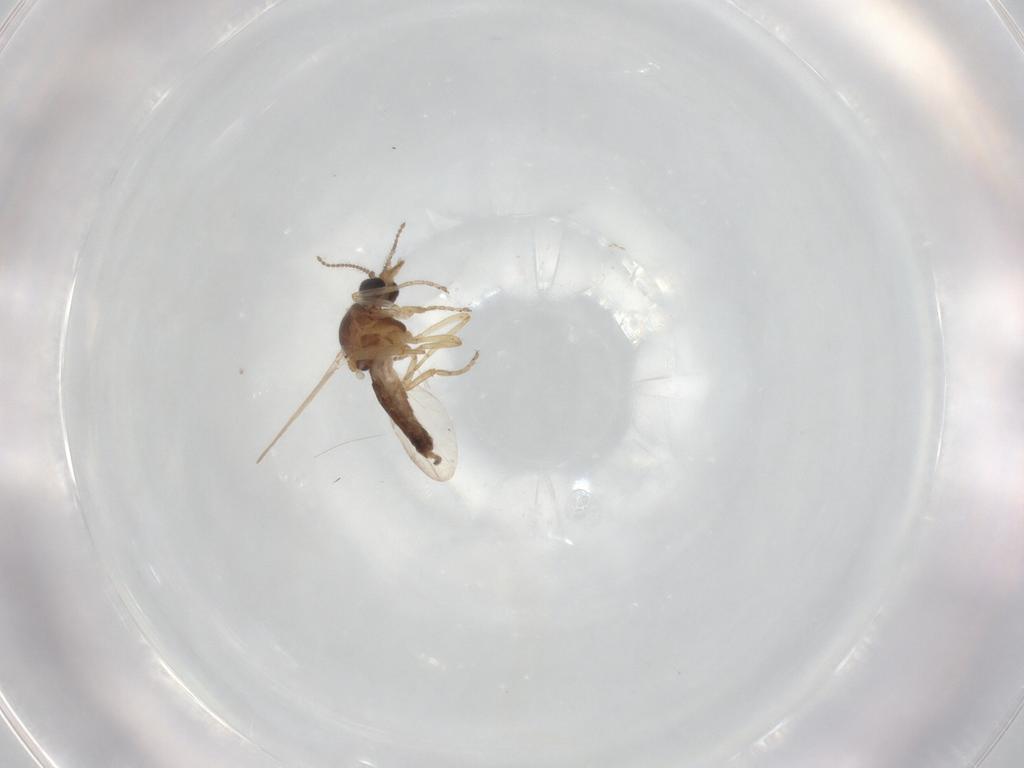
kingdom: Animalia
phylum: Arthropoda
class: Insecta
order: Diptera
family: Ceratopogonidae
